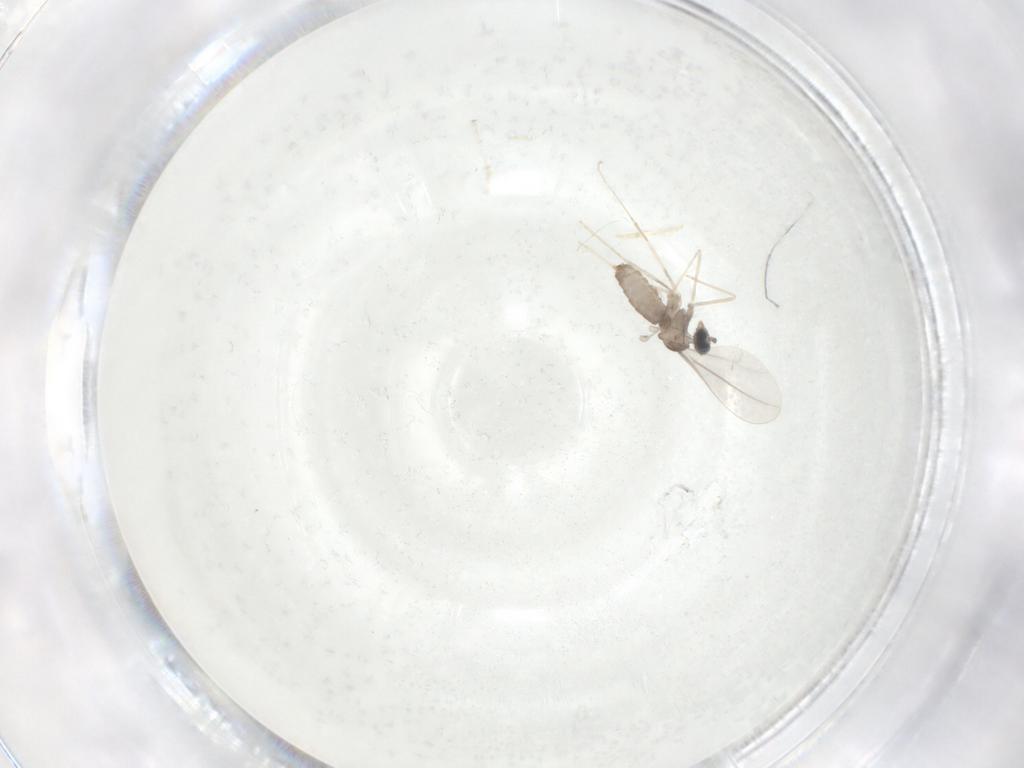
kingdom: Animalia
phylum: Arthropoda
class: Insecta
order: Diptera
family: Cecidomyiidae
